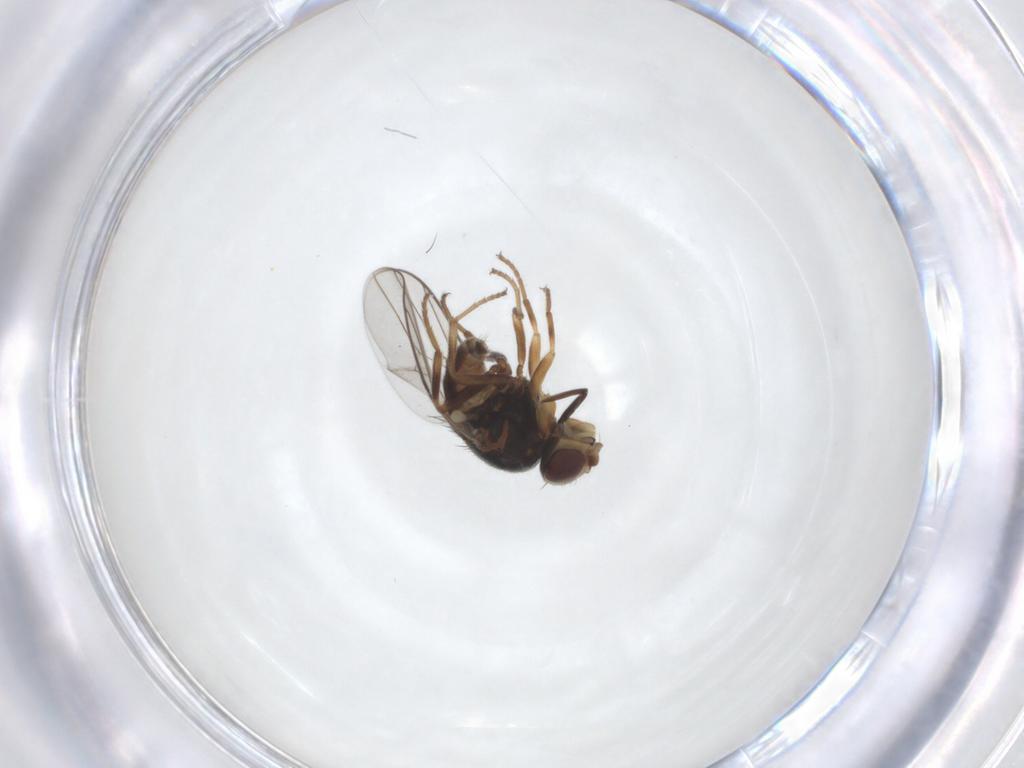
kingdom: Animalia
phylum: Arthropoda
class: Insecta
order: Diptera
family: Chloropidae
